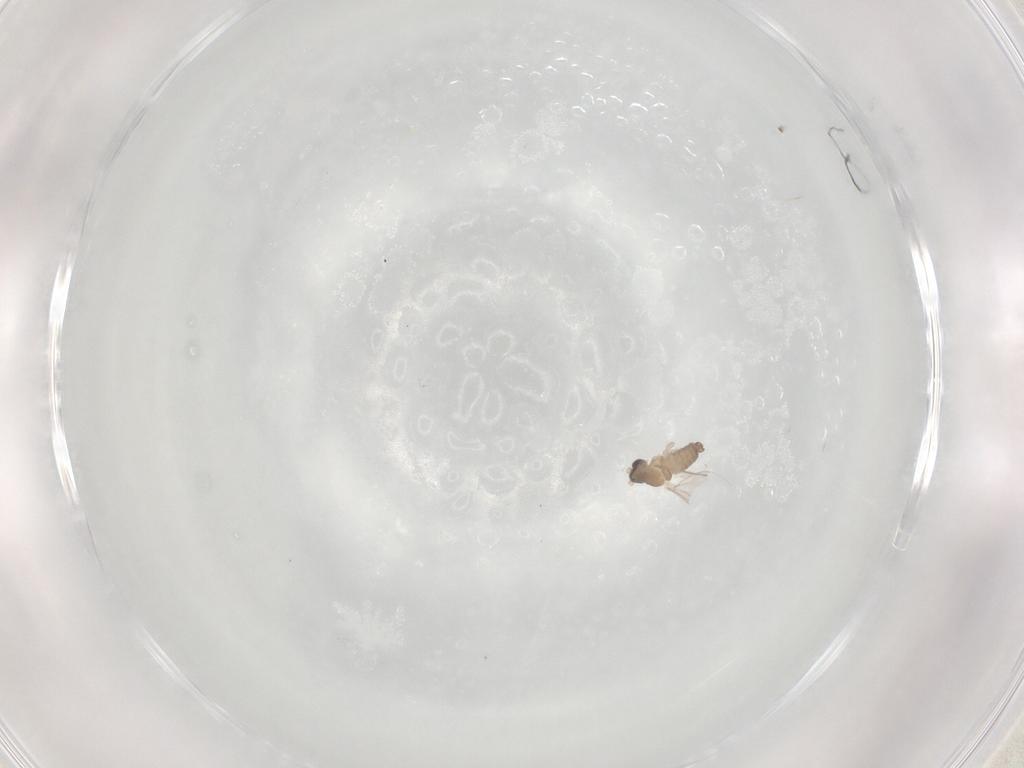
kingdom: Animalia
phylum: Arthropoda
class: Insecta
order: Diptera
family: Cecidomyiidae
